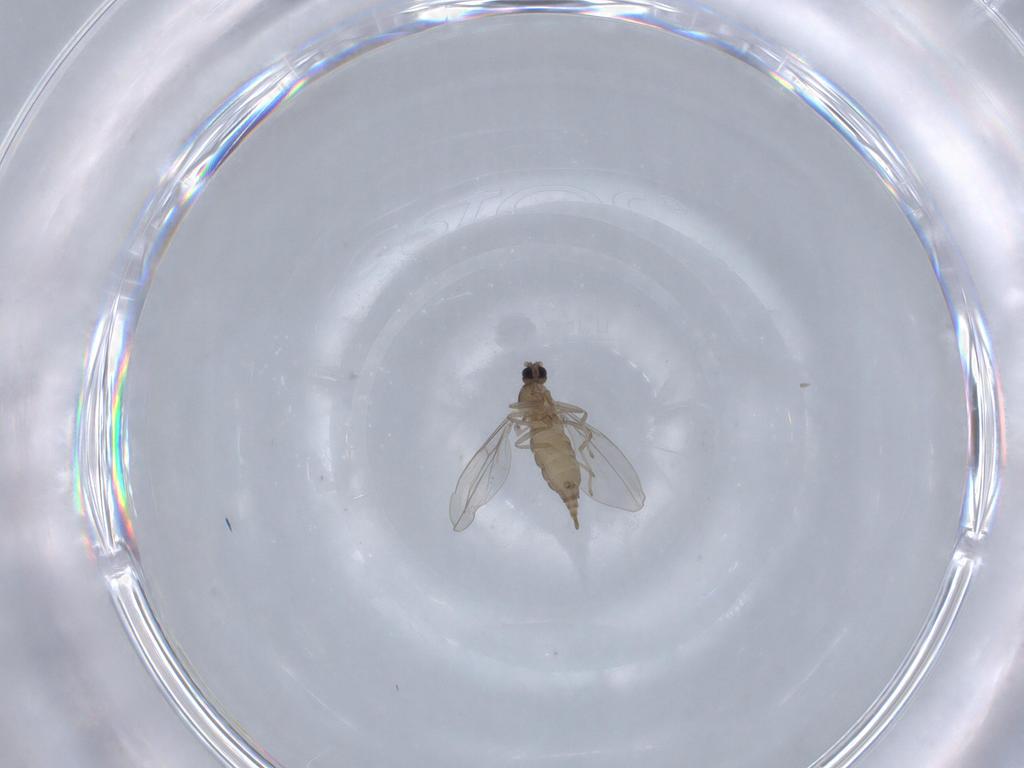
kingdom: Animalia
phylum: Arthropoda
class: Insecta
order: Diptera
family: Cecidomyiidae
